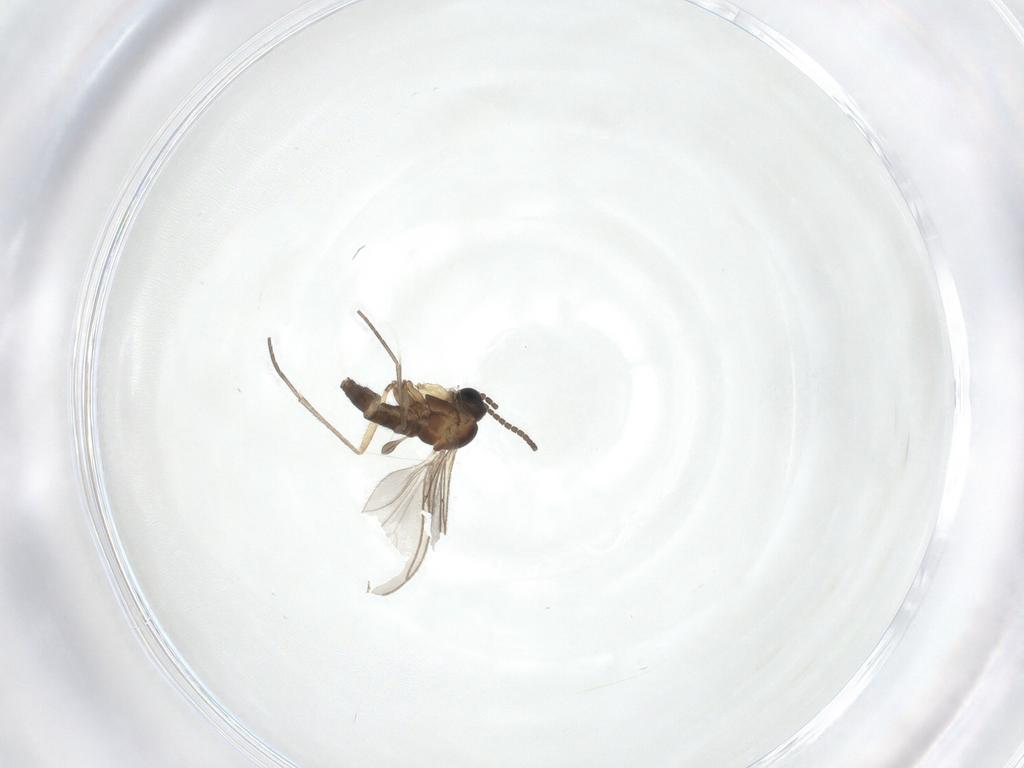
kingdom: Animalia
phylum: Arthropoda
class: Insecta
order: Diptera
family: Sciaridae
